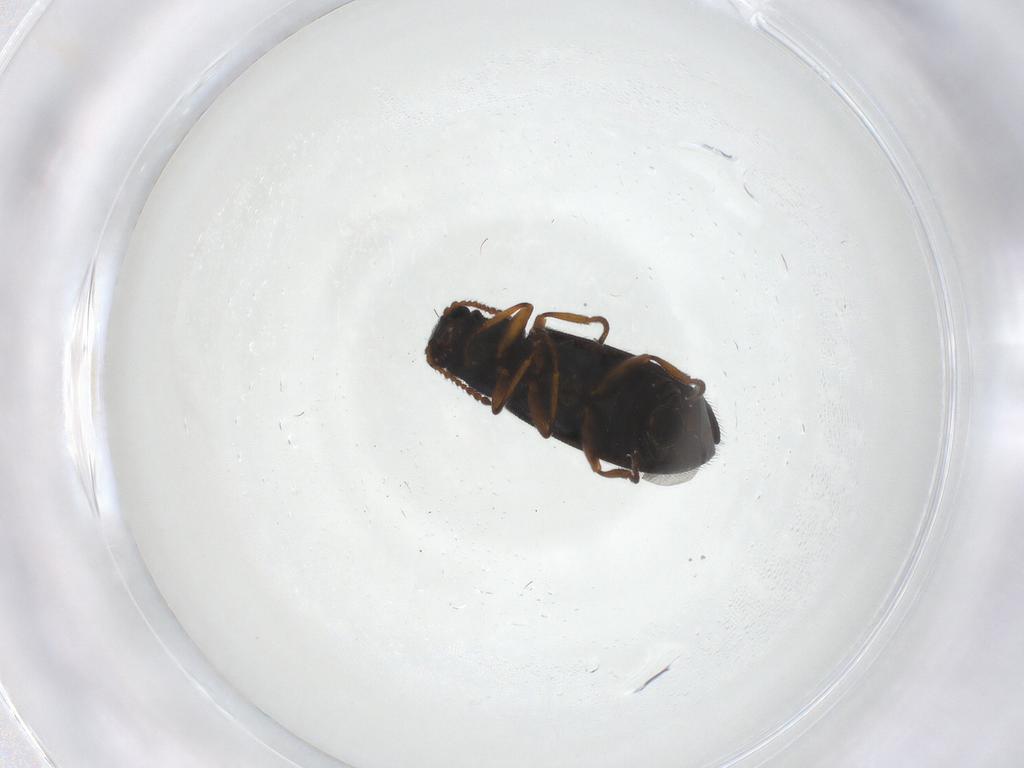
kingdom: Animalia
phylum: Arthropoda
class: Insecta
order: Coleoptera
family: Melyridae
